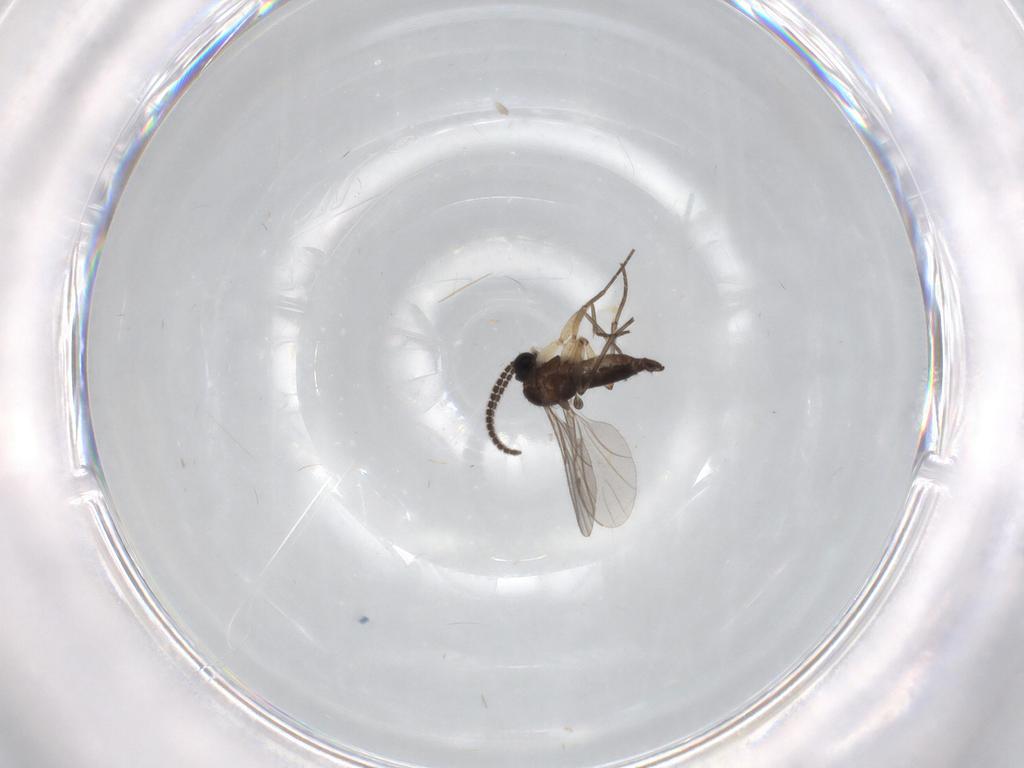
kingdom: Animalia
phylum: Arthropoda
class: Insecta
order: Diptera
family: Sciaridae
